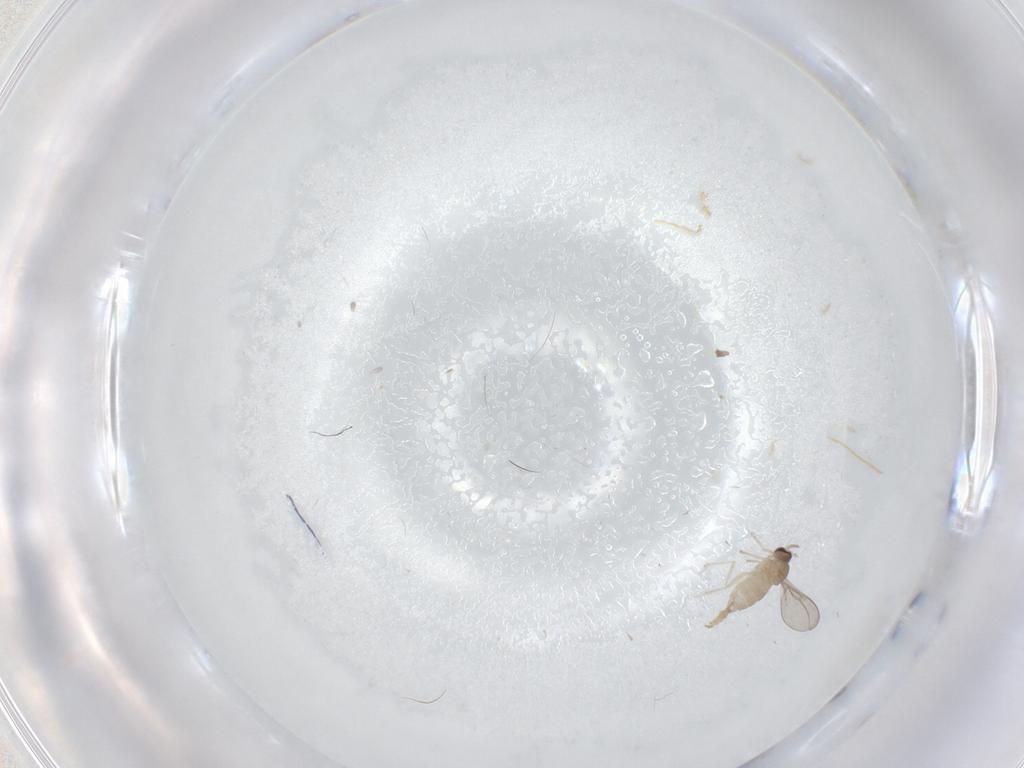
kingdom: Animalia
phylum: Arthropoda
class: Insecta
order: Diptera
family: Cecidomyiidae
